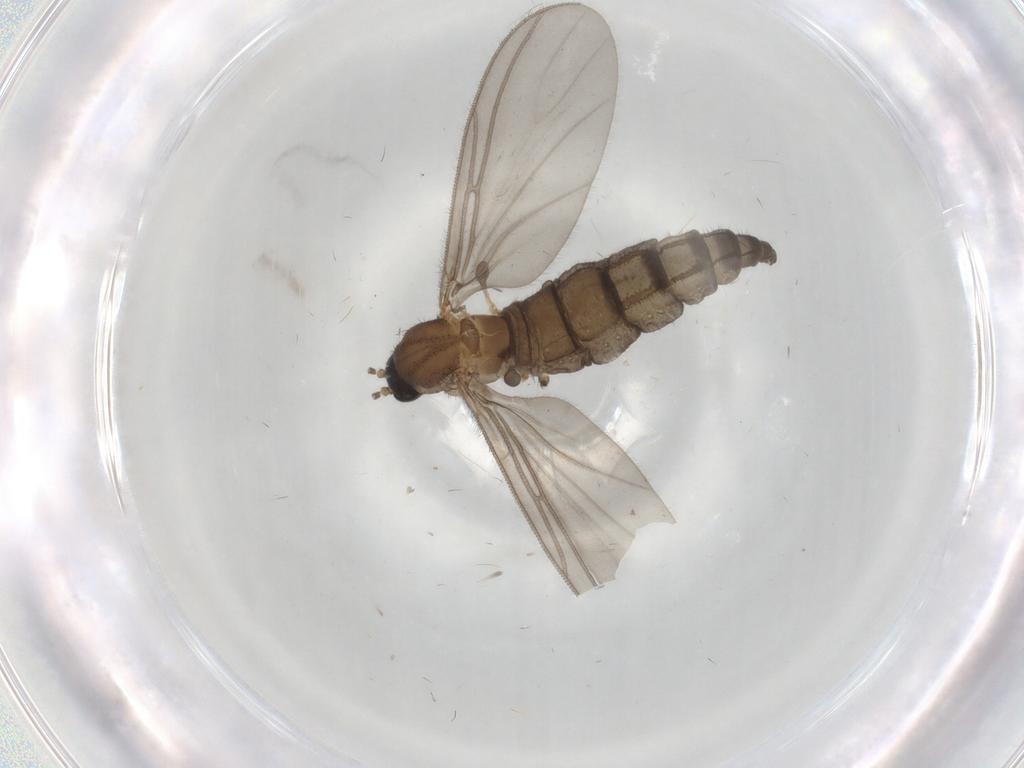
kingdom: Animalia
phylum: Arthropoda
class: Insecta
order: Diptera
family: Cecidomyiidae
